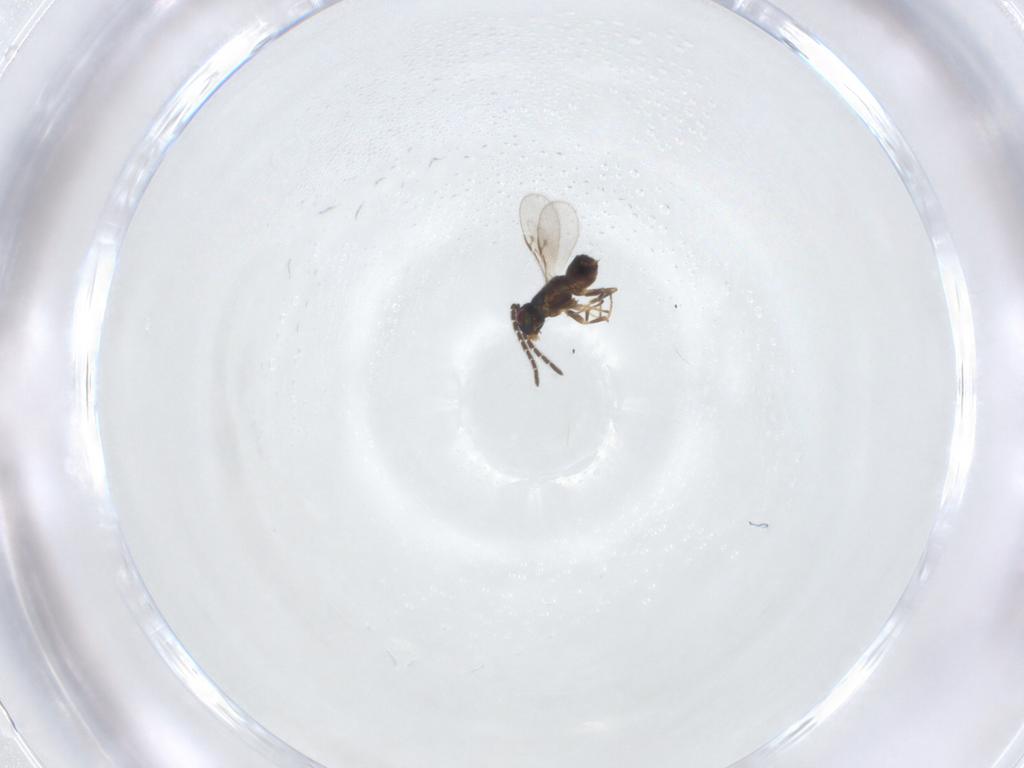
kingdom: Animalia
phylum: Arthropoda
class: Insecta
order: Hymenoptera
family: Encyrtidae
